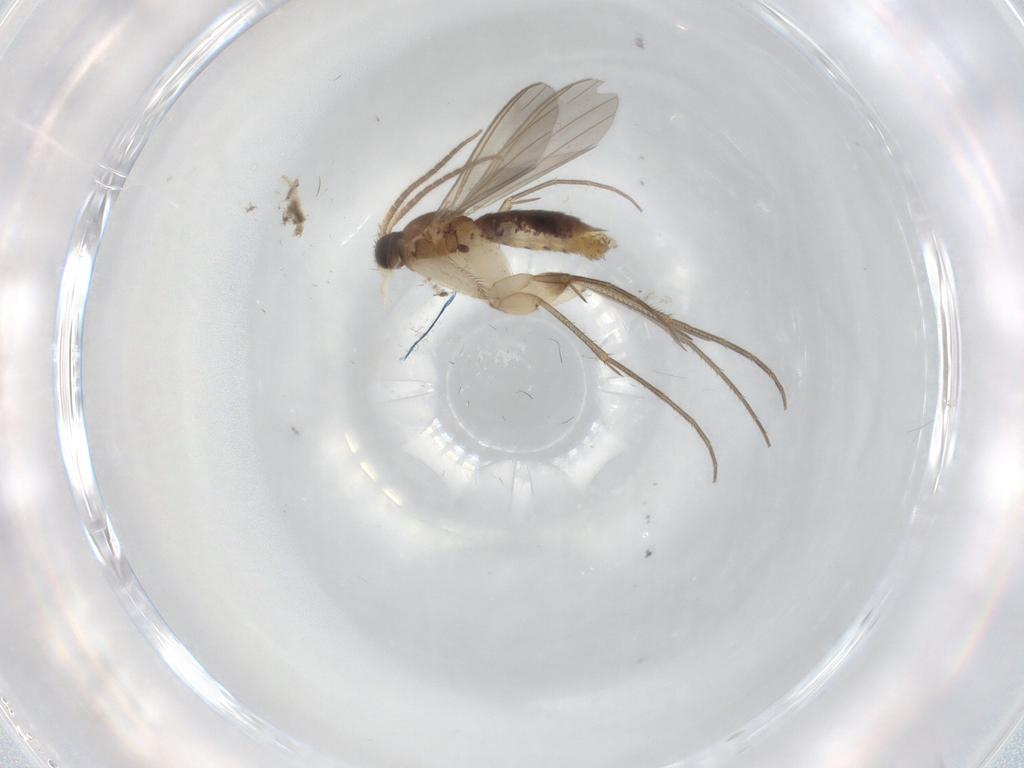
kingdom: Animalia
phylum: Arthropoda
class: Insecta
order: Diptera
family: Mycetophilidae
